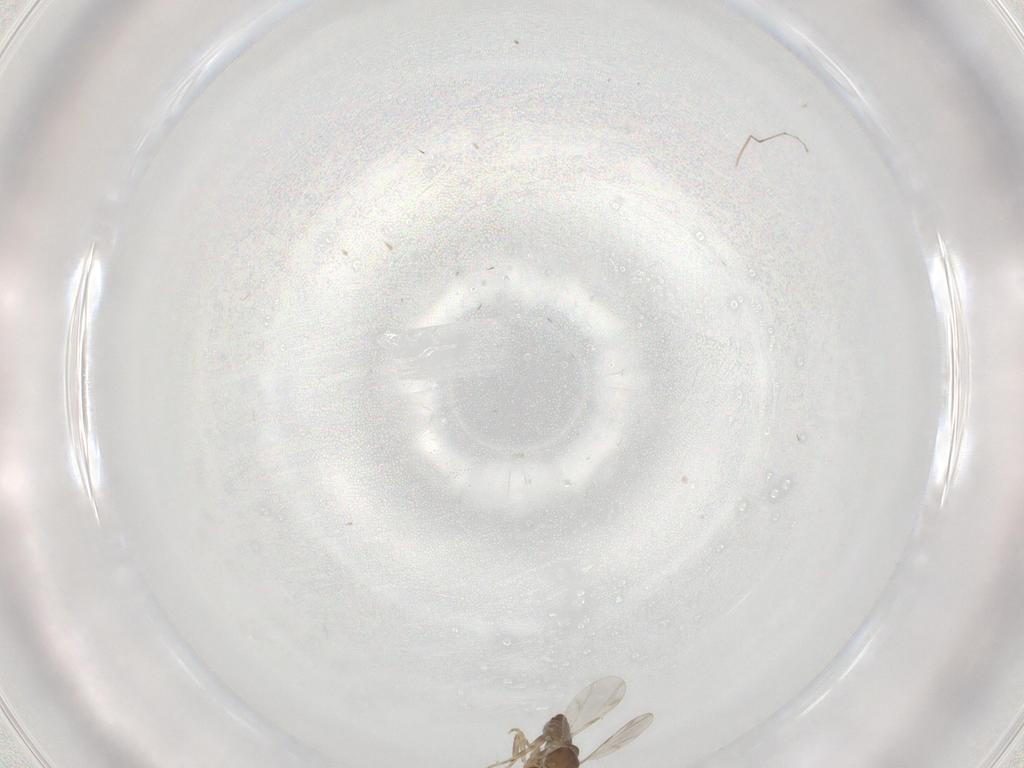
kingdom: Animalia
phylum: Arthropoda
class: Insecta
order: Diptera
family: Ceratopogonidae
